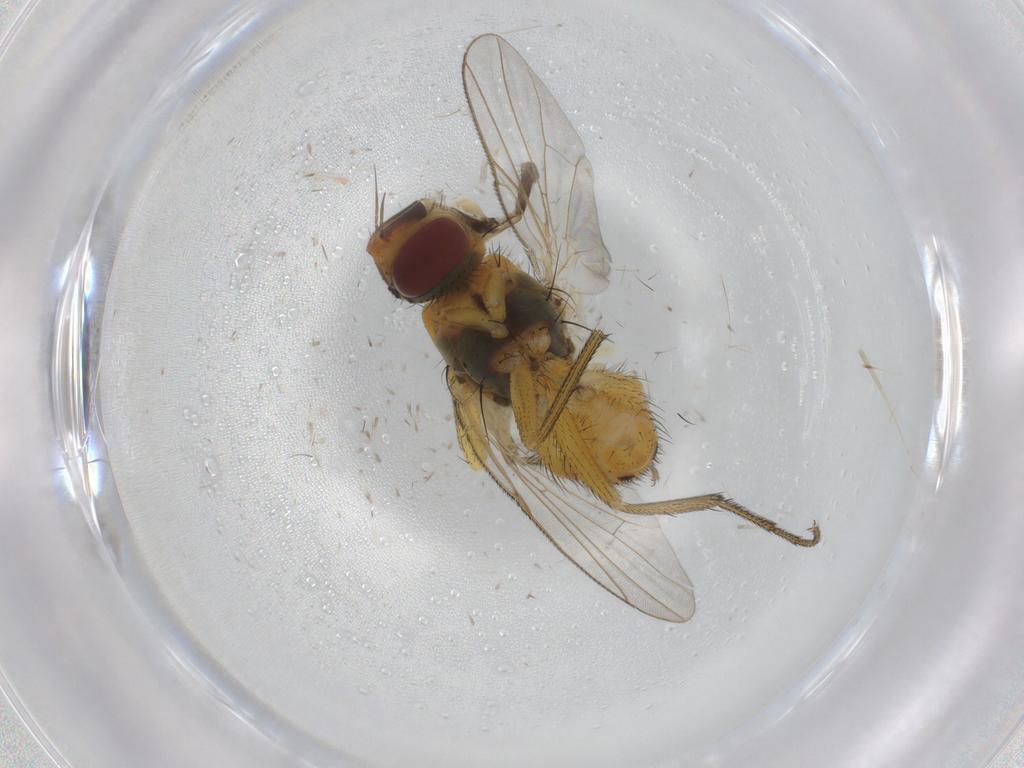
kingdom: Animalia
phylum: Arthropoda
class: Insecta
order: Diptera
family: Muscidae
